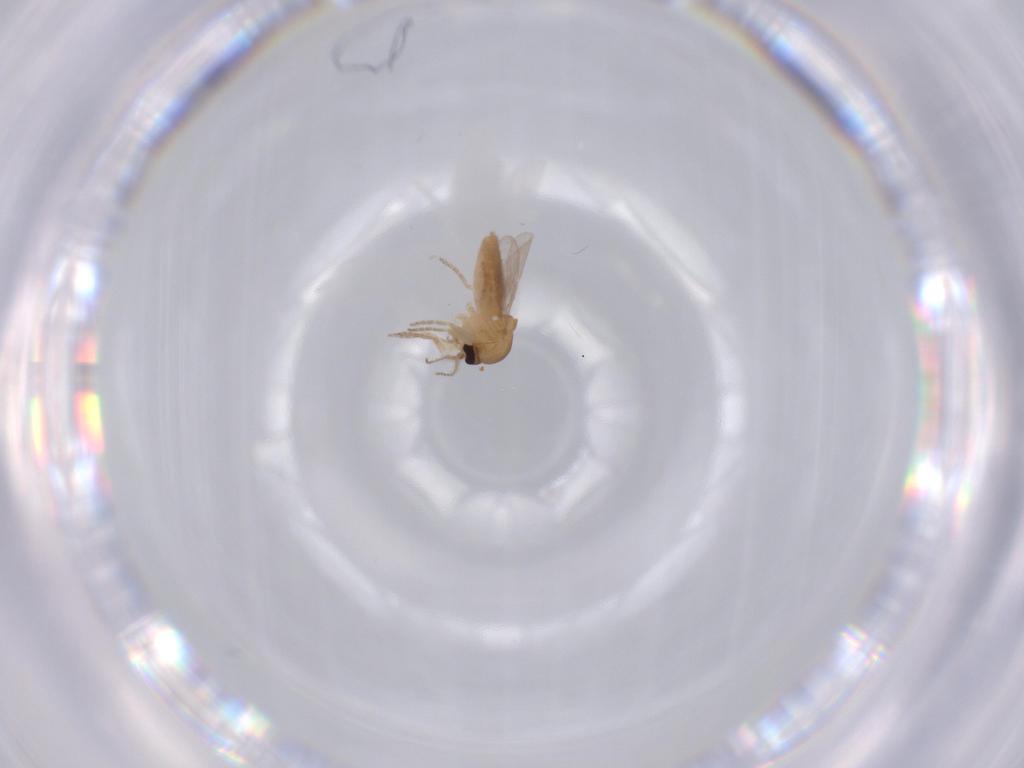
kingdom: Animalia
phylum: Arthropoda
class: Insecta
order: Diptera
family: Ceratopogonidae
